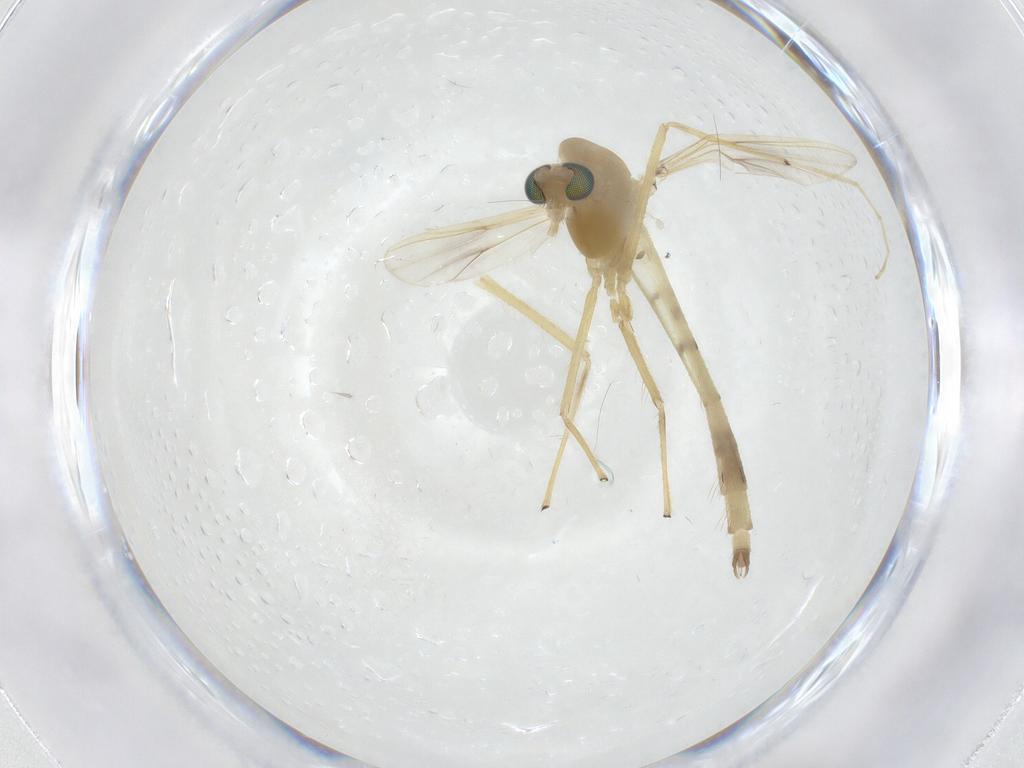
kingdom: Animalia
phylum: Arthropoda
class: Insecta
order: Diptera
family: Chironomidae
